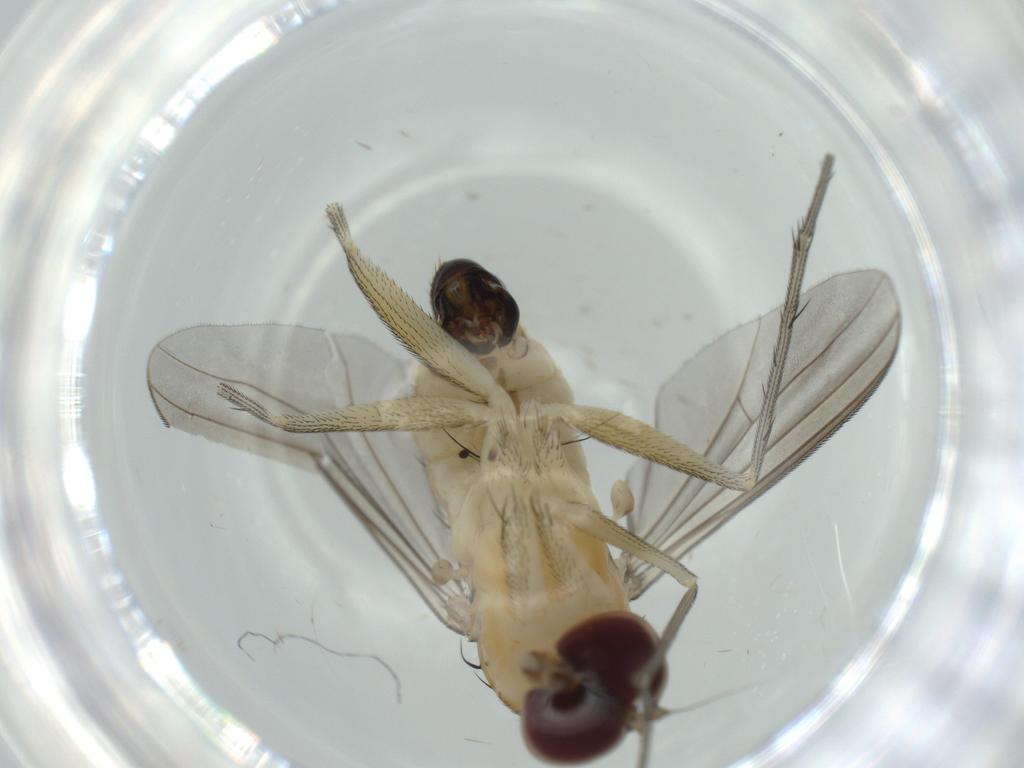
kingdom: Animalia
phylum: Arthropoda
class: Insecta
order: Diptera
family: Dolichopodidae
